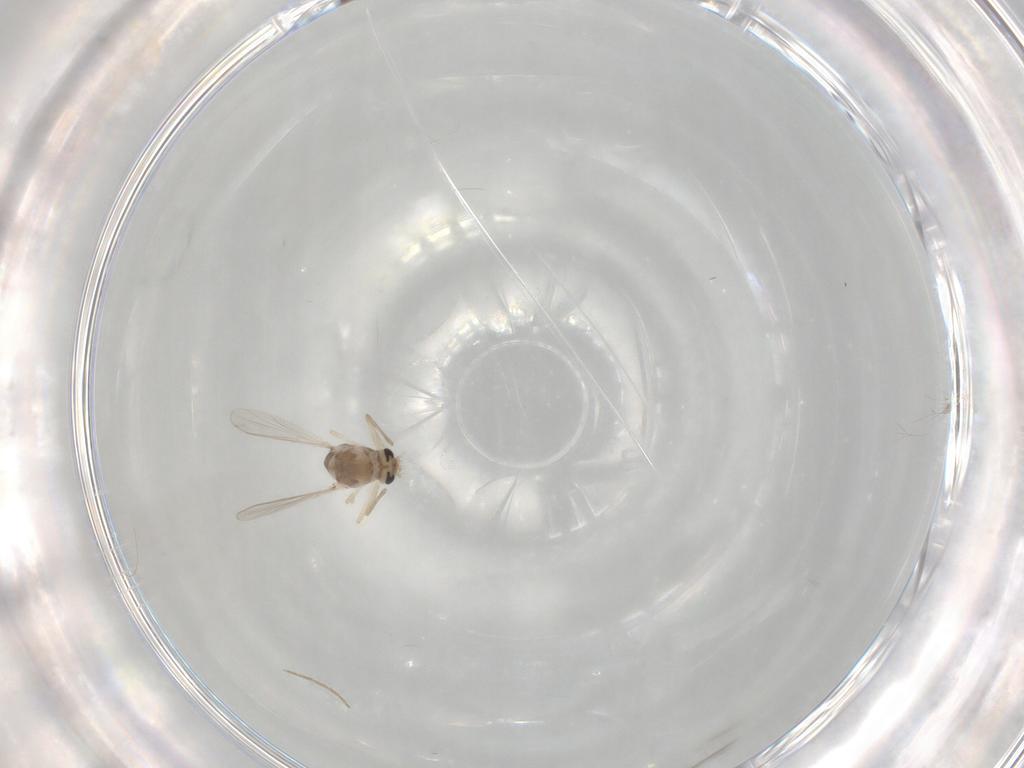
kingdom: Animalia
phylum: Arthropoda
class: Insecta
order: Diptera
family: Chironomidae
